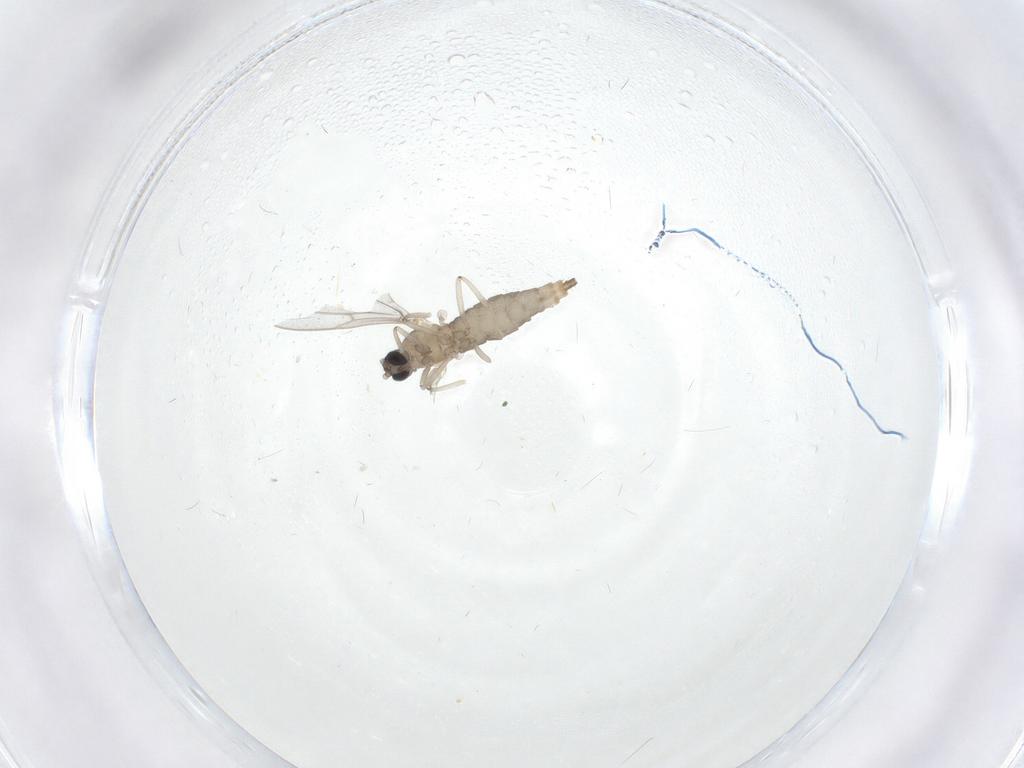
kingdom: Animalia
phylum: Arthropoda
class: Insecta
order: Diptera
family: Cecidomyiidae
